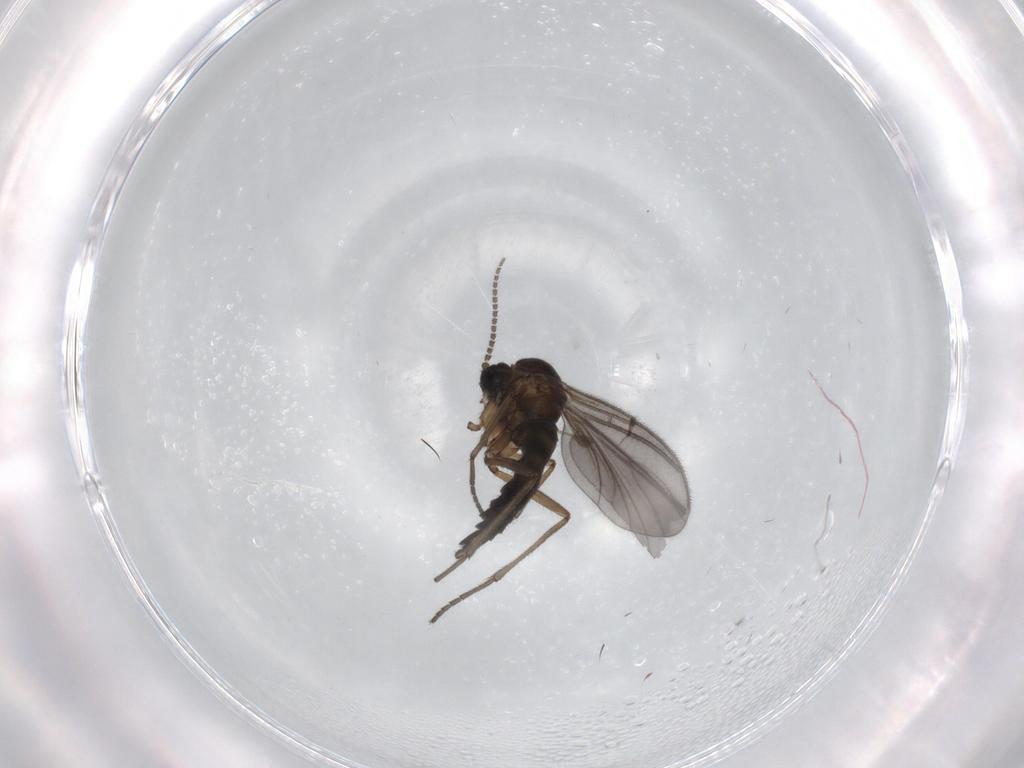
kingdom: Animalia
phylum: Arthropoda
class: Insecta
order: Diptera
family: Sciaridae
